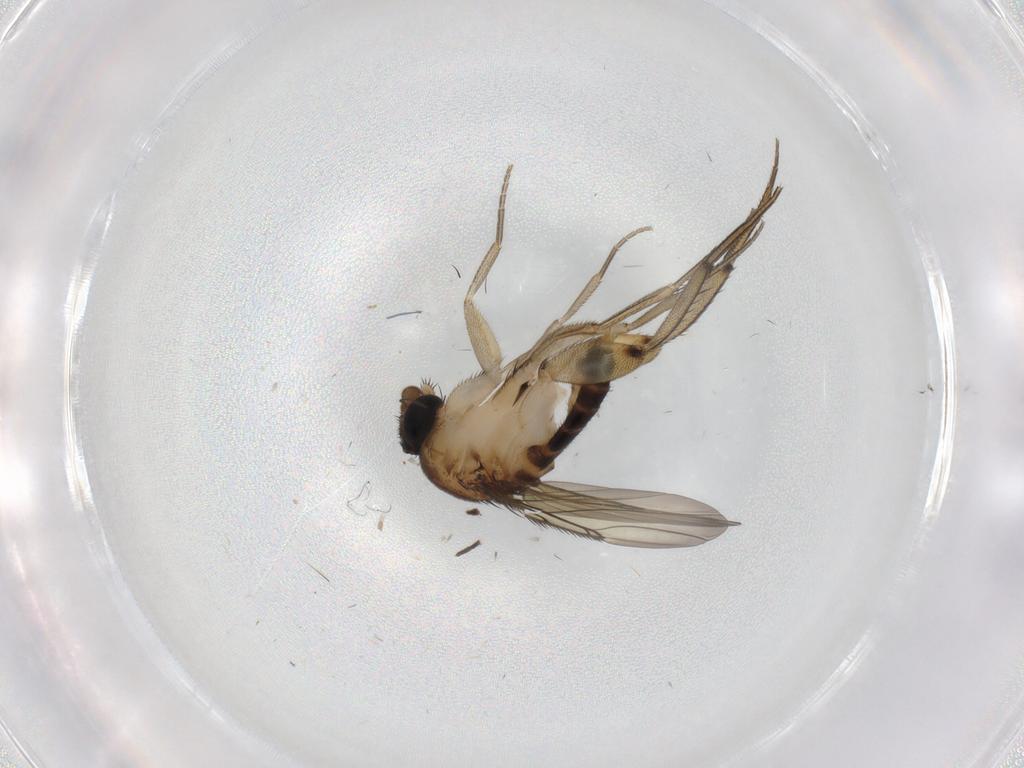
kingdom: Animalia
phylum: Arthropoda
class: Insecta
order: Diptera
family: Phoridae
